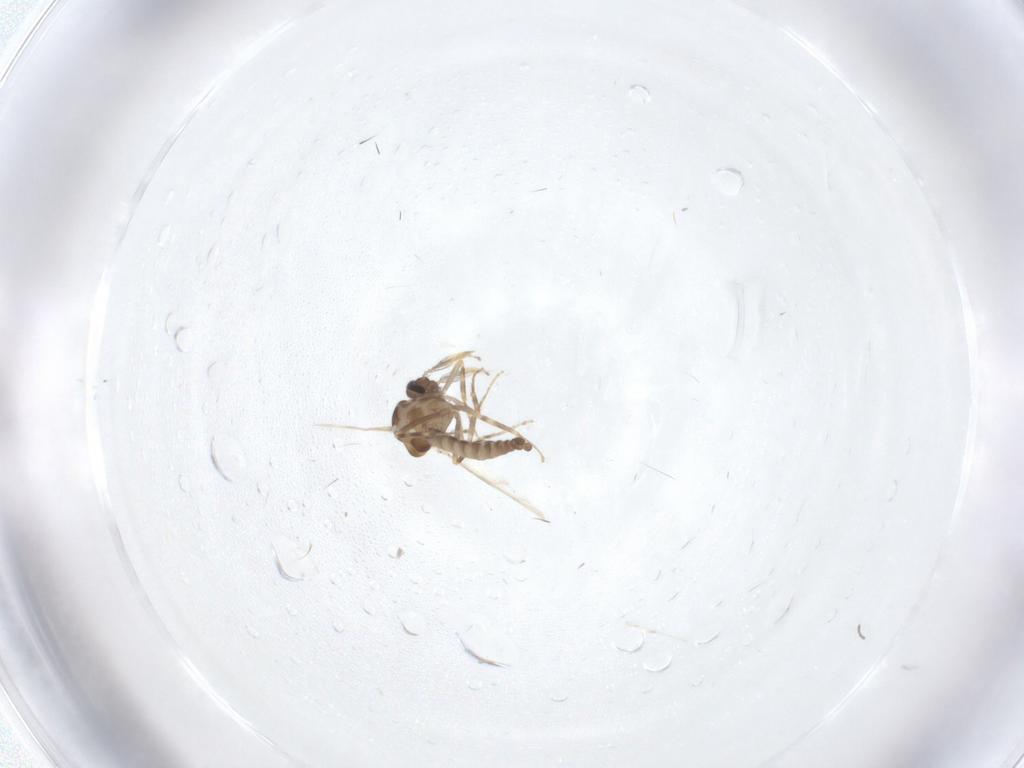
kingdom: Animalia
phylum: Arthropoda
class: Insecta
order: Diptera
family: Ceratopogonidae
